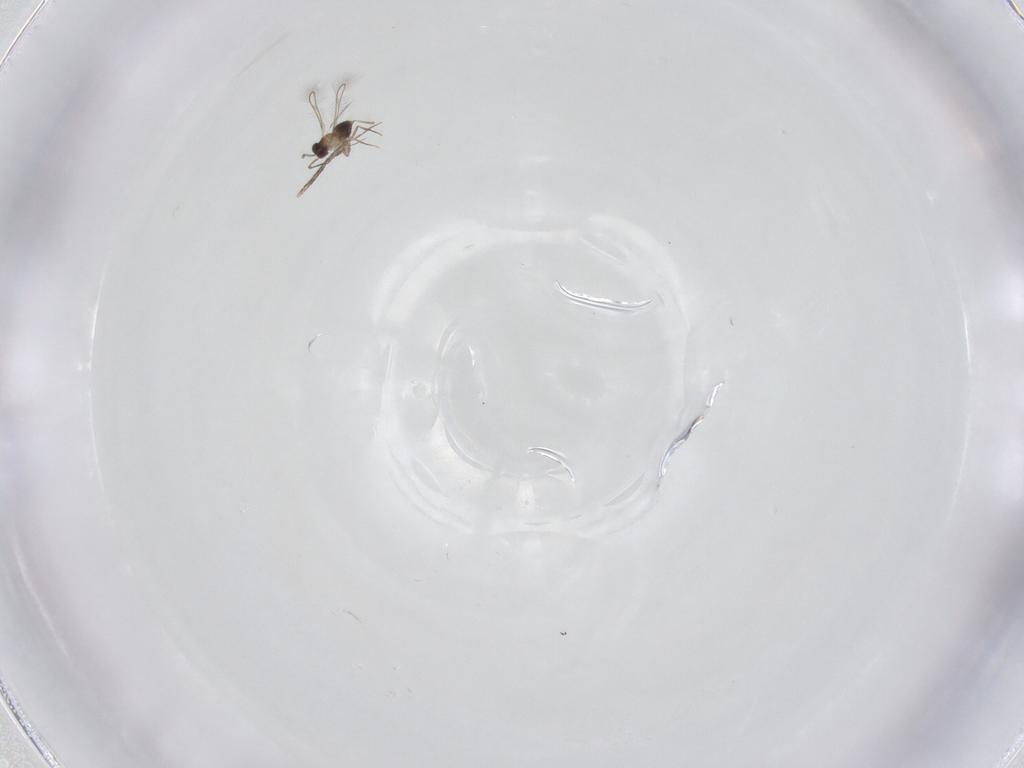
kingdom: Animalia
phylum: Arthropoda
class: Insecta
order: Hymenoptera
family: Mymaridae
